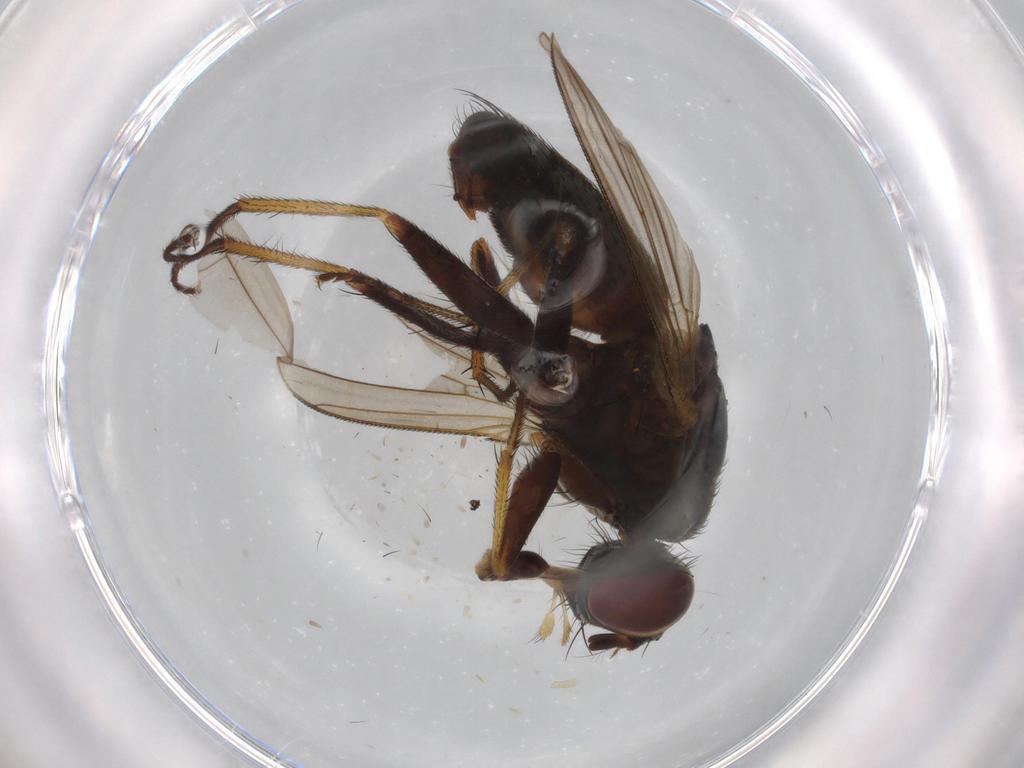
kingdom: Animalia
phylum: Arthropoda
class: Insecta
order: Diptera
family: Muscidae
